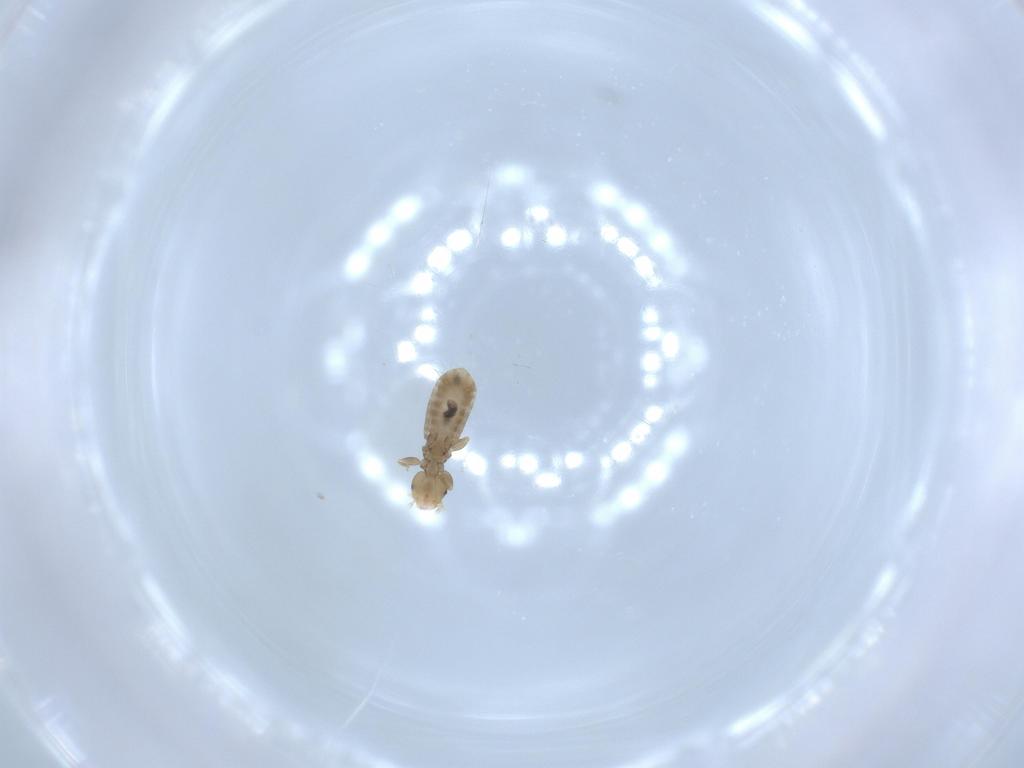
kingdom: Animalia
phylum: Arthropoda
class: Insecta
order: Psocodea
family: Liposcelididae
